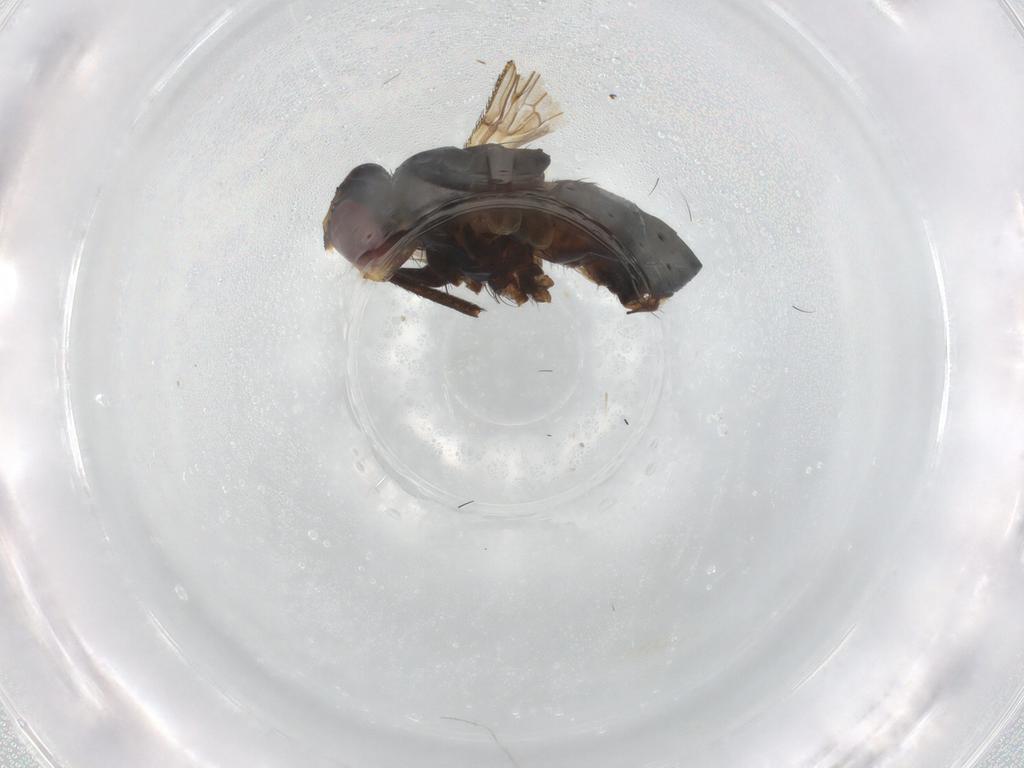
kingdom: Animalia
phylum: Arthropoda
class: Insecta
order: Diptera
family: Calliphoridae
